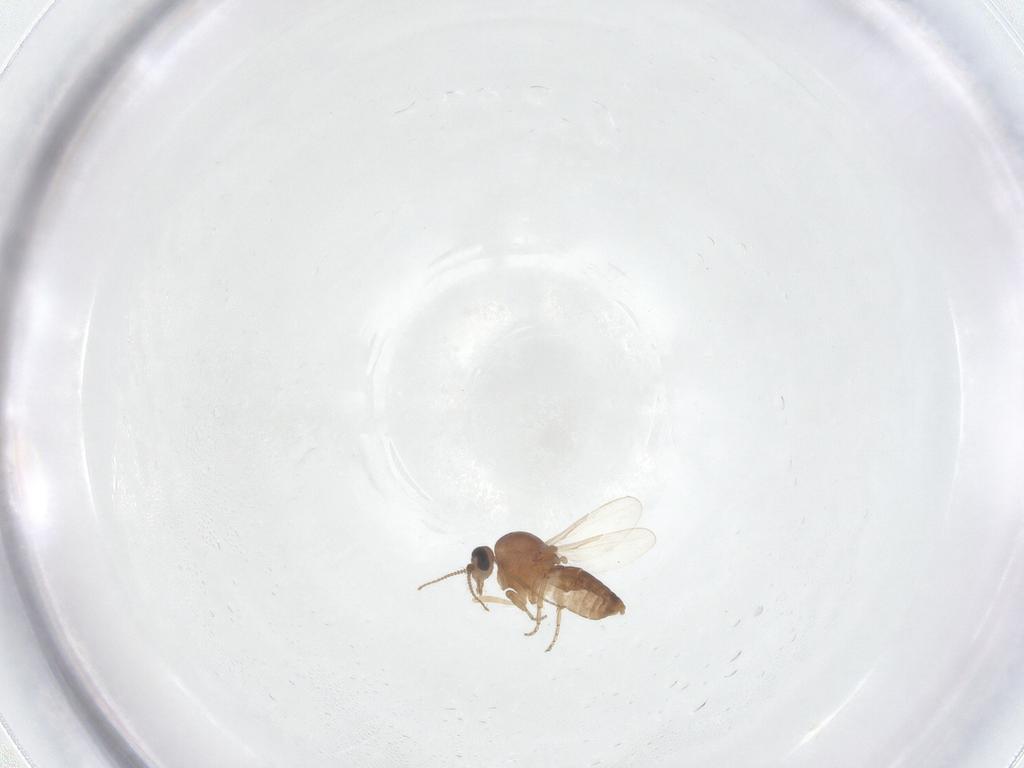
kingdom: Animalia
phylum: Arthropoda
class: Insecta
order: Diptera
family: Ceratopogonidae
